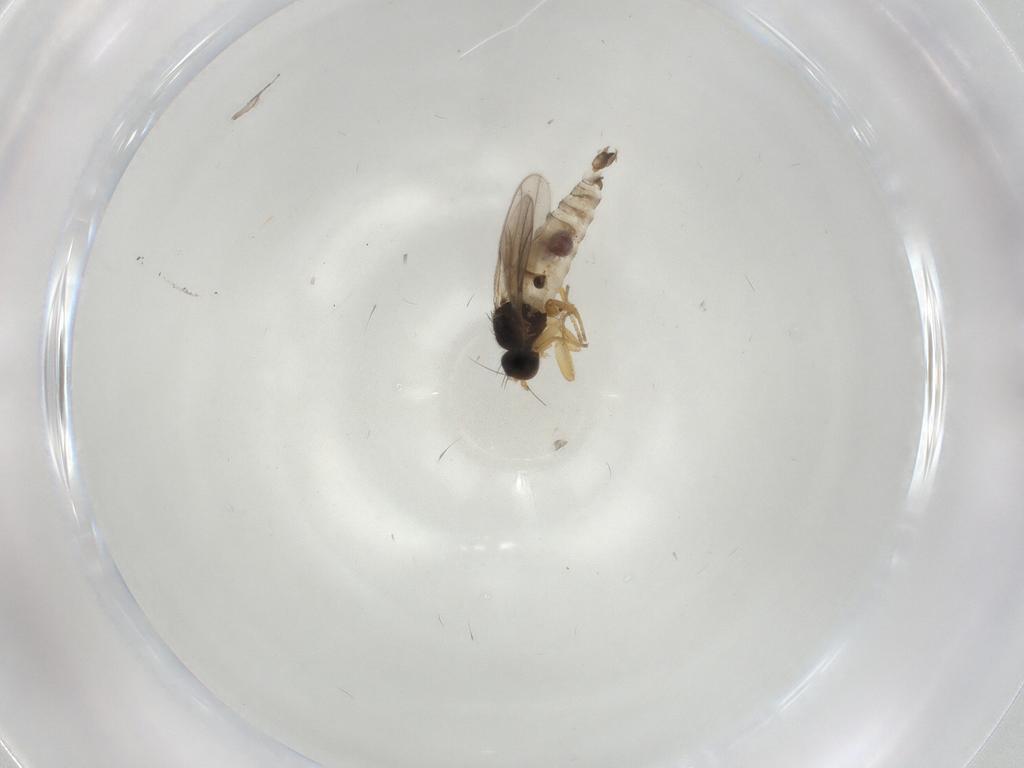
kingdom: Animalia
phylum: Arthropoda
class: Insecta
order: Diptera
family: Hybotidae
